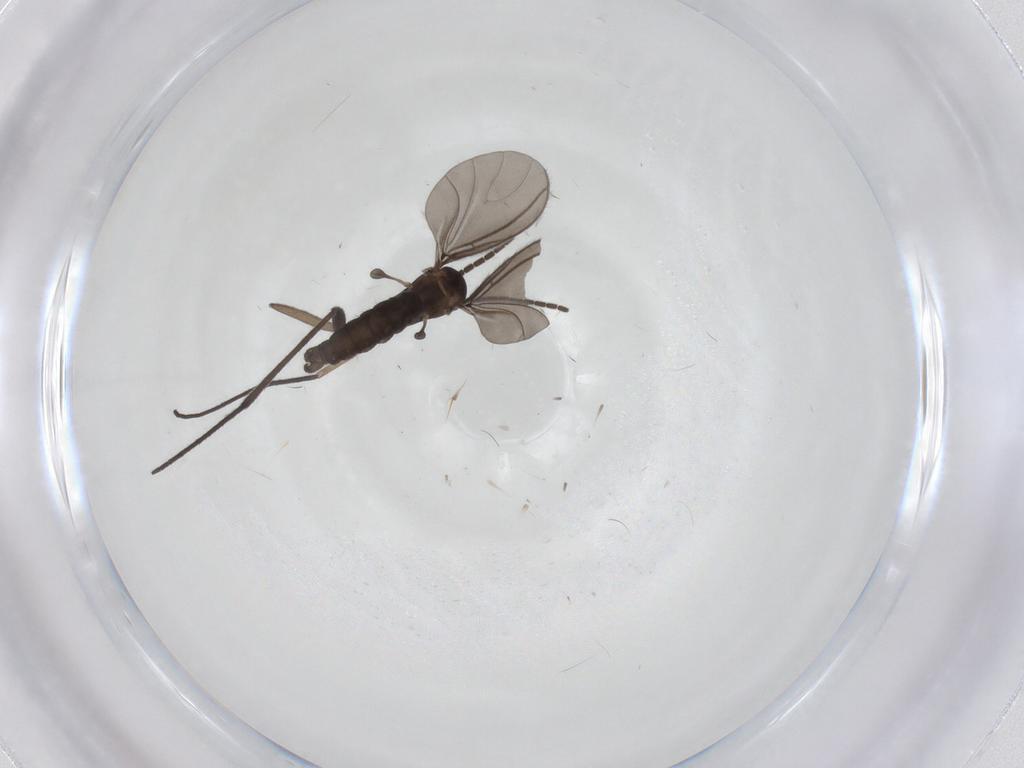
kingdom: Animalia
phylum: Arthropoda
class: Insecta
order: Diptera
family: Sciaridae
